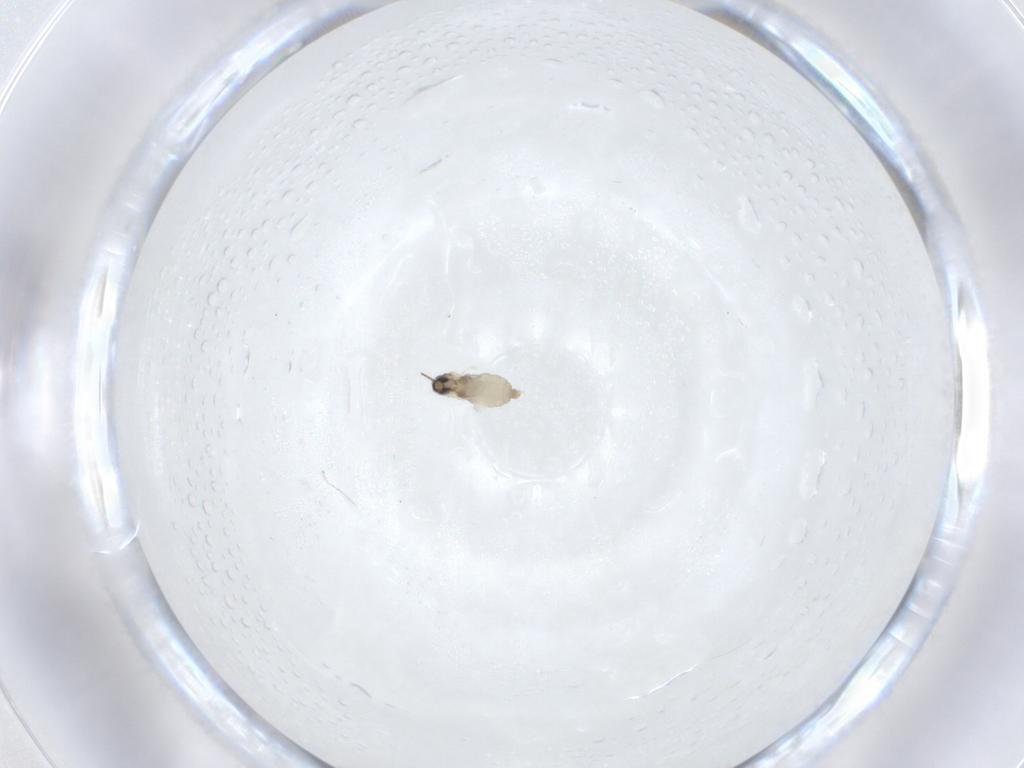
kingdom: Animalia
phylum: Arthropoda
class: Insecta
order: Diptera
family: Cecidomyiidae
